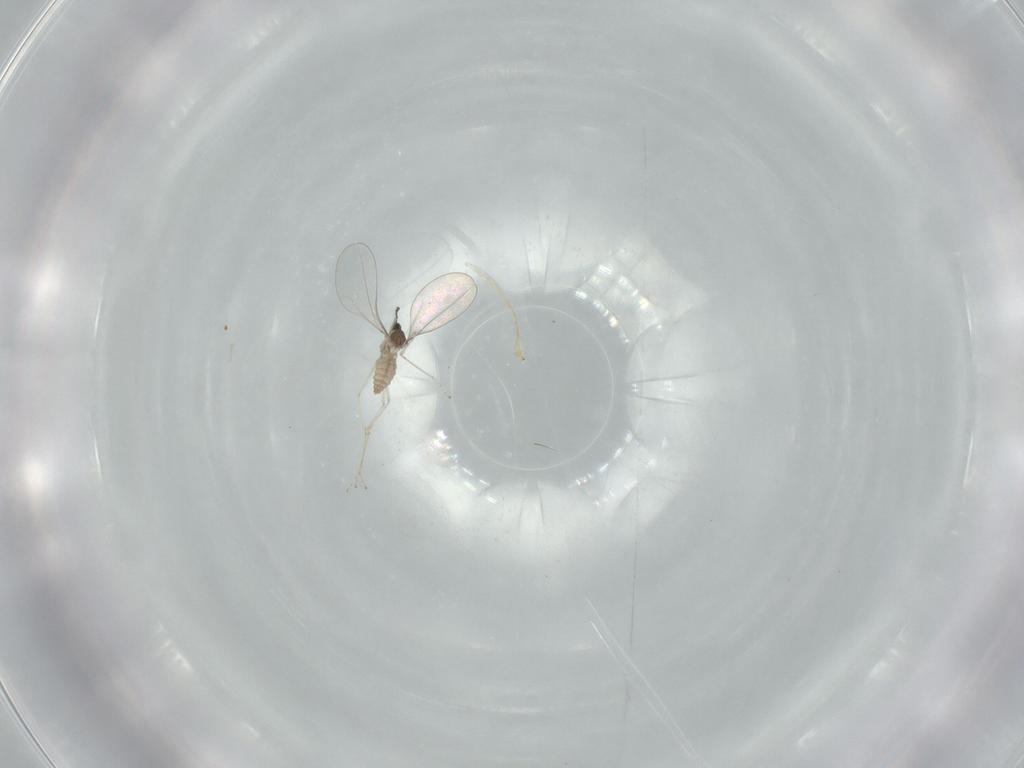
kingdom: Animalia
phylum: Arthropoda
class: Insecta
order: Diptera
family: Cecidomyiidae
